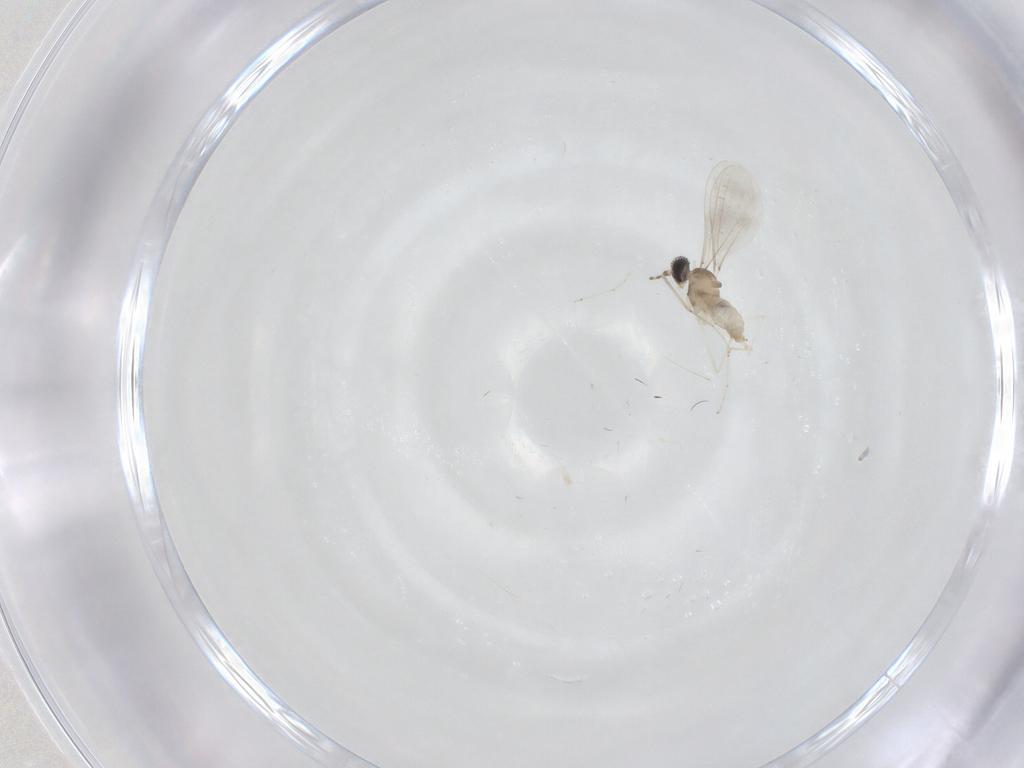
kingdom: Animalia
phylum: Arthropoda
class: Insecta
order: Diptera
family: Cecidomyiidae
